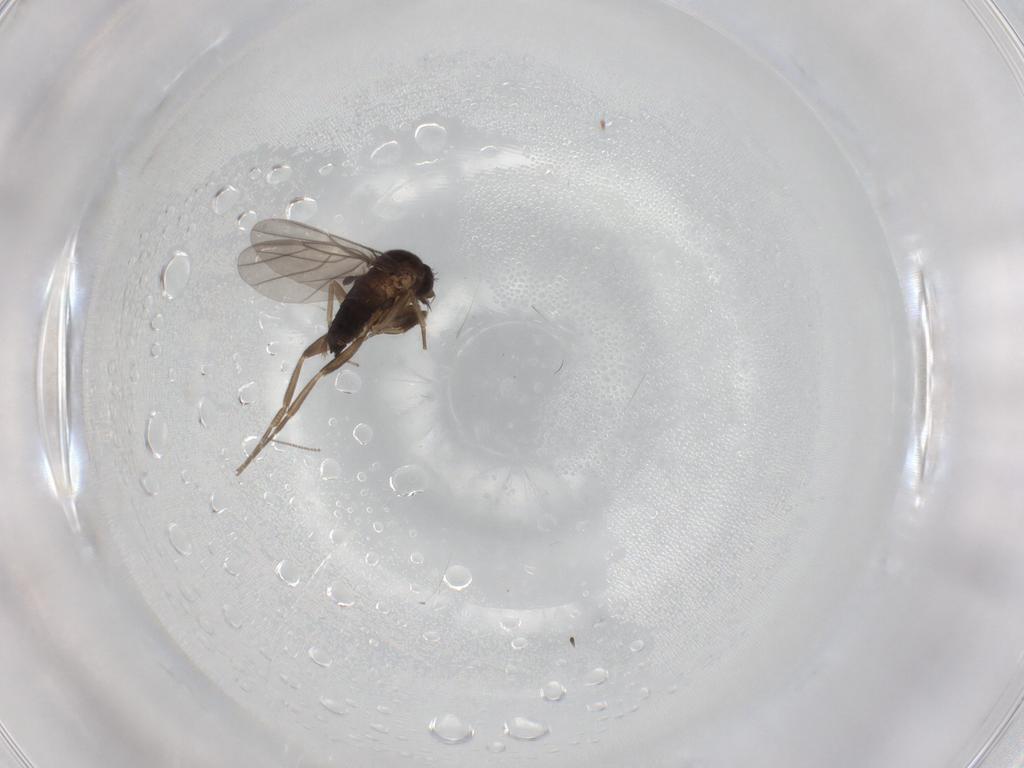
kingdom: Animalia
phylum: Arthropoda
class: Insecta
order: Diptera
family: Cecidomyiidae
